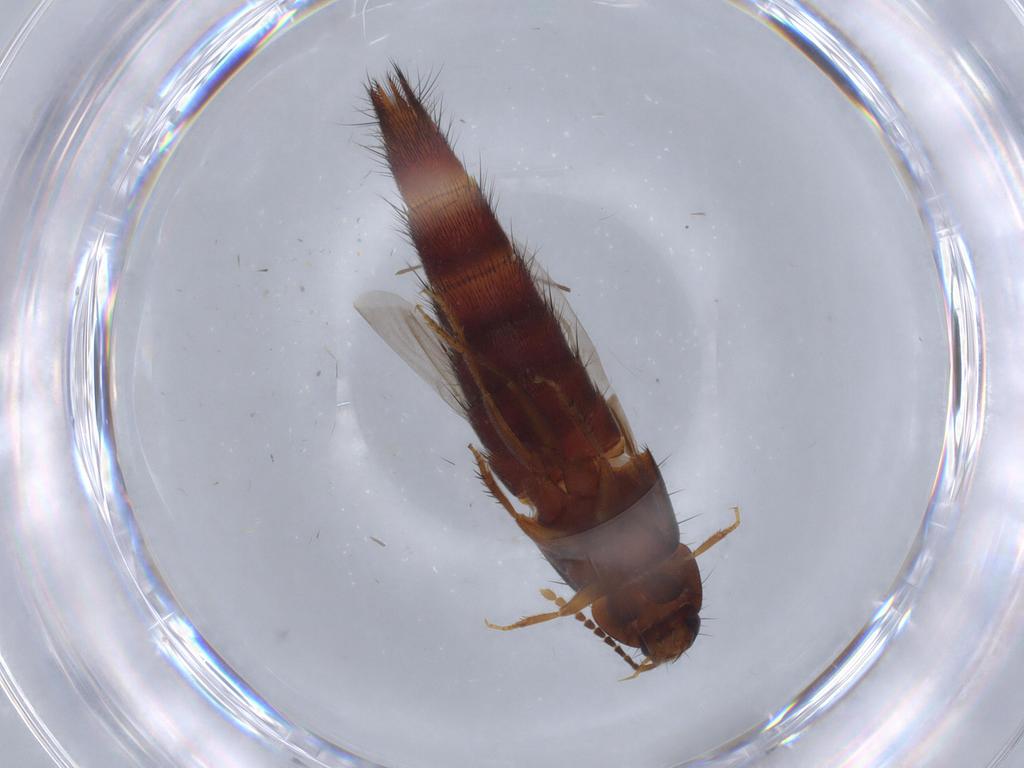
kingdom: Animalia
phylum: Arthropoda
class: Insecta
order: Coleoptera
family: Staphylinidae
